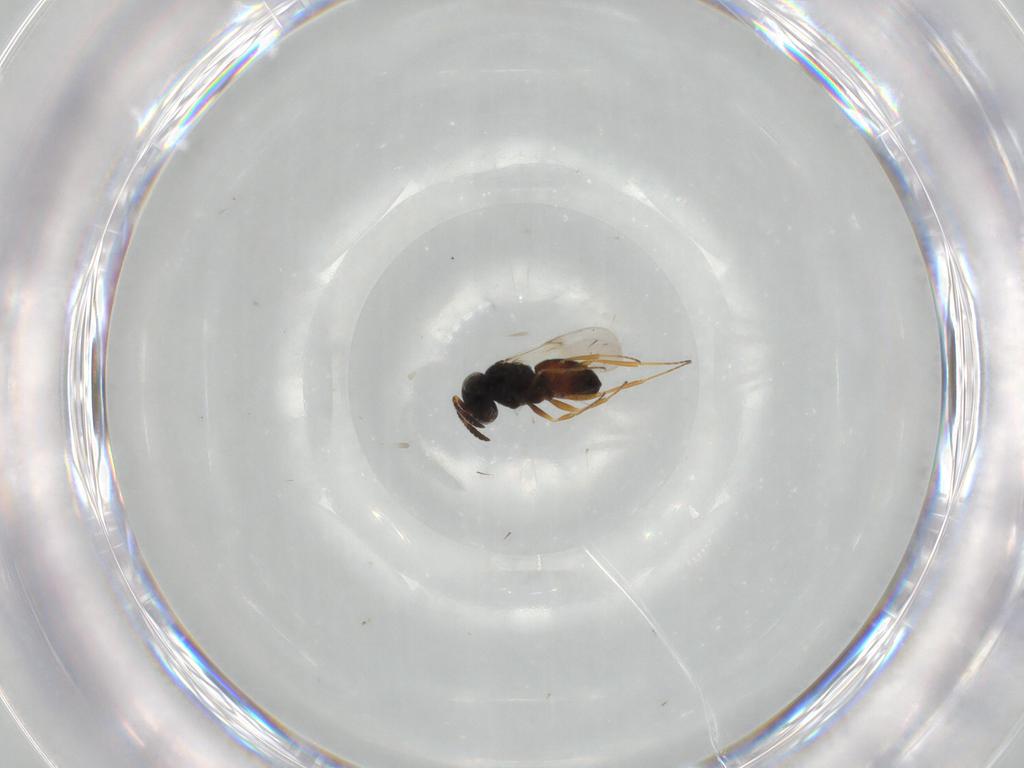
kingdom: Animalia
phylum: Arthropoda
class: Insecta
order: Hymenoptera
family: Scelionidae
